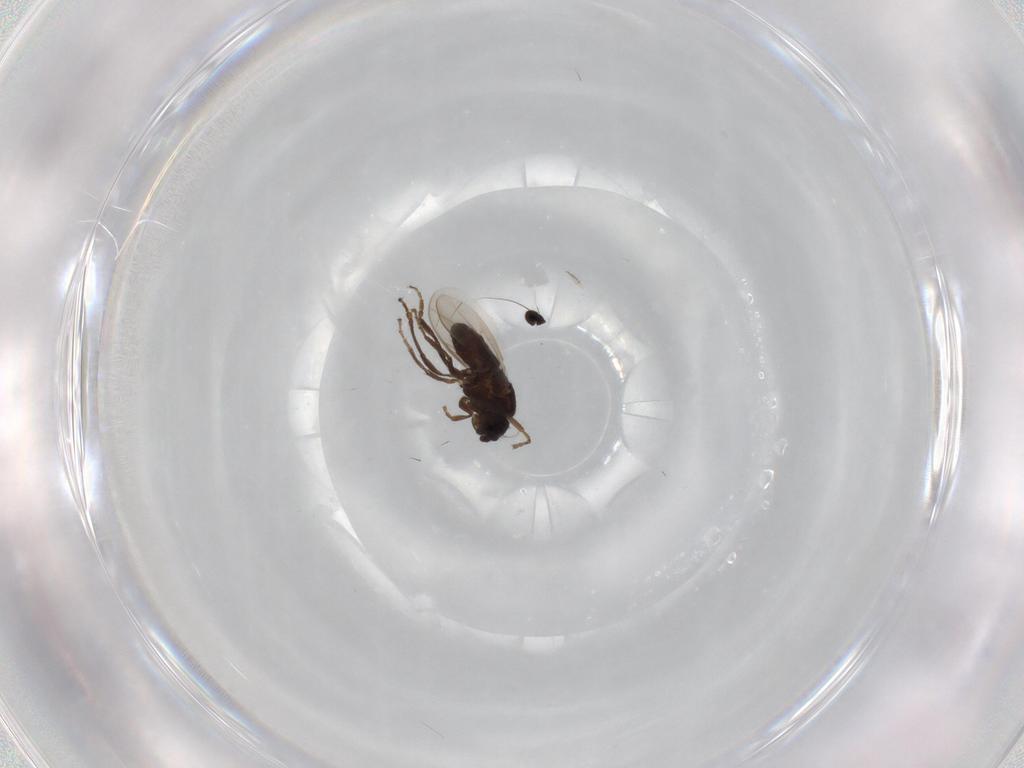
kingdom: Animalia
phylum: Arthropoda
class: Insecta
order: Diptera
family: Sphaeroceridae
